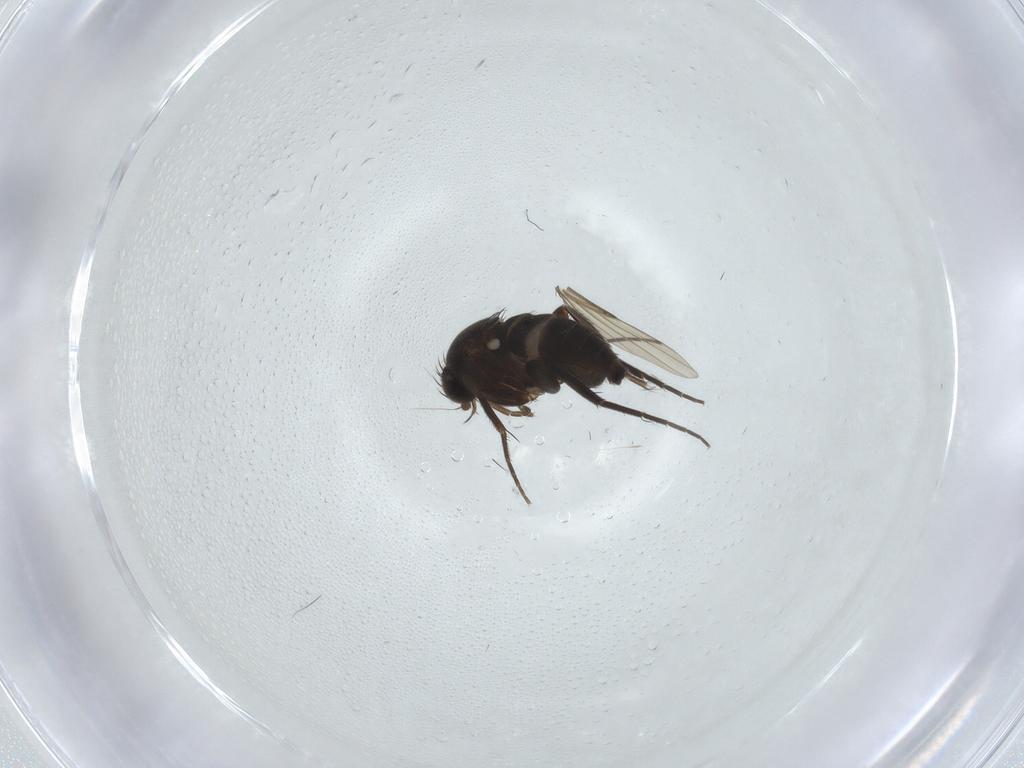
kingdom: Animalia
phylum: Arthropoda
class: Insecta
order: Diptera
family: Phoridae
